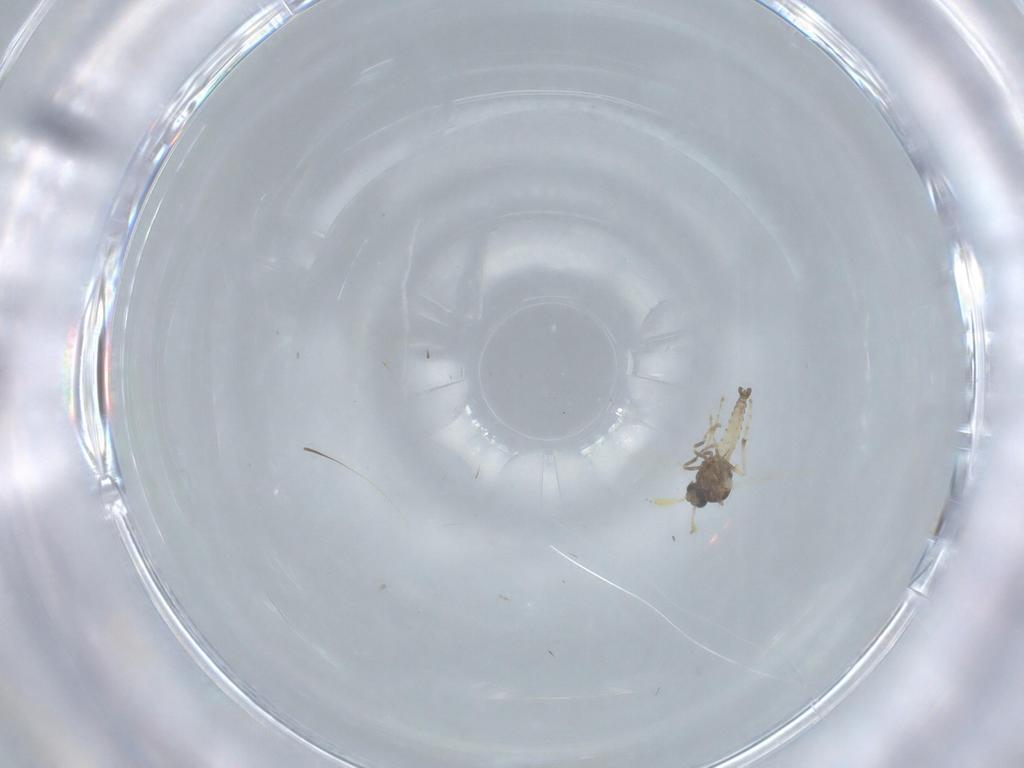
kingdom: Animalia
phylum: Arthropoda
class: Insecta
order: Diptera
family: Ceratopogonidae
